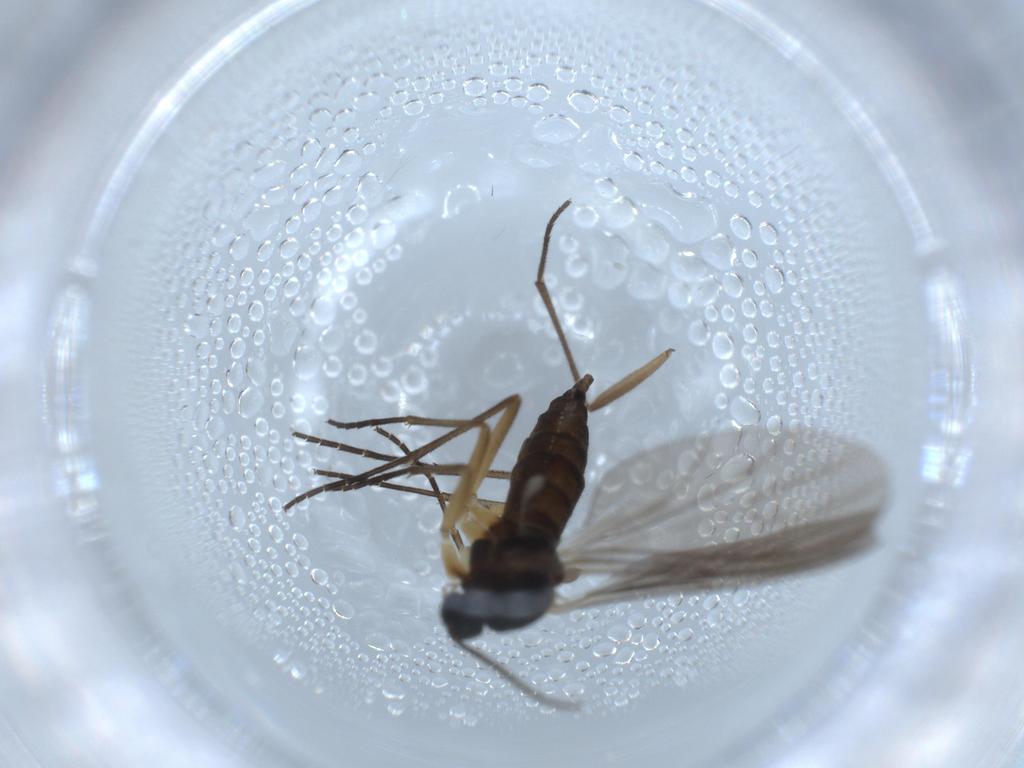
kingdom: Animalia
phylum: Arthropoda
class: Insecta
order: Diptera
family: Sciaridae
